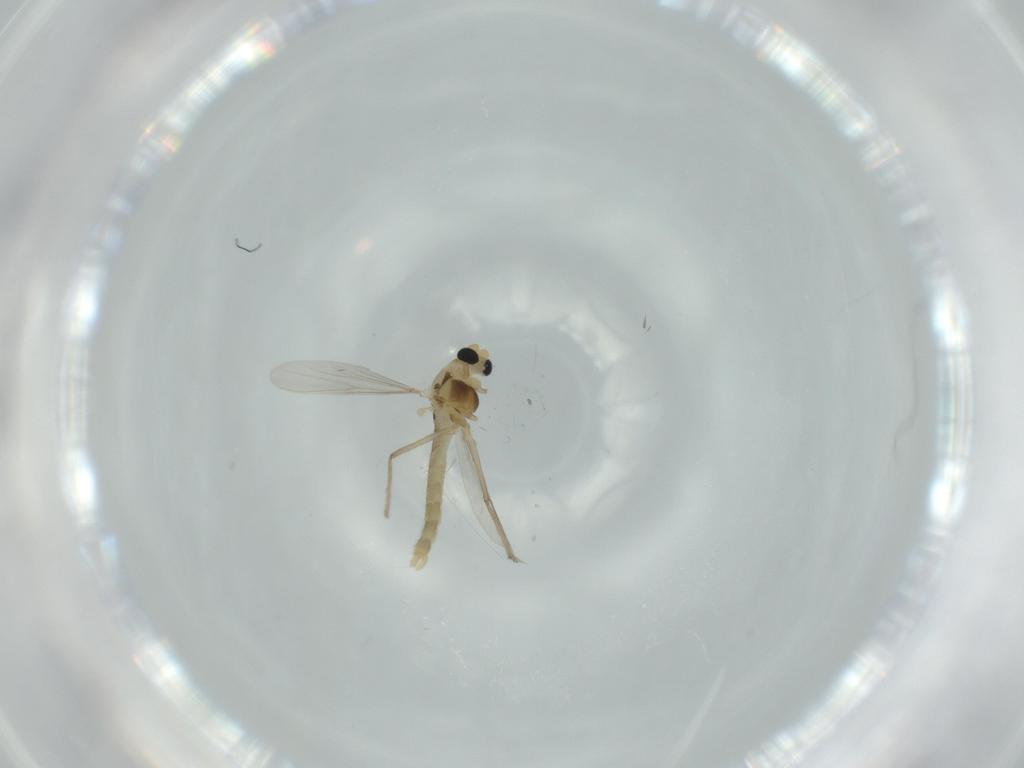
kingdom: Animalia
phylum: Arthropoda
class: Insecta
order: Diptera
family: Chironomidae
